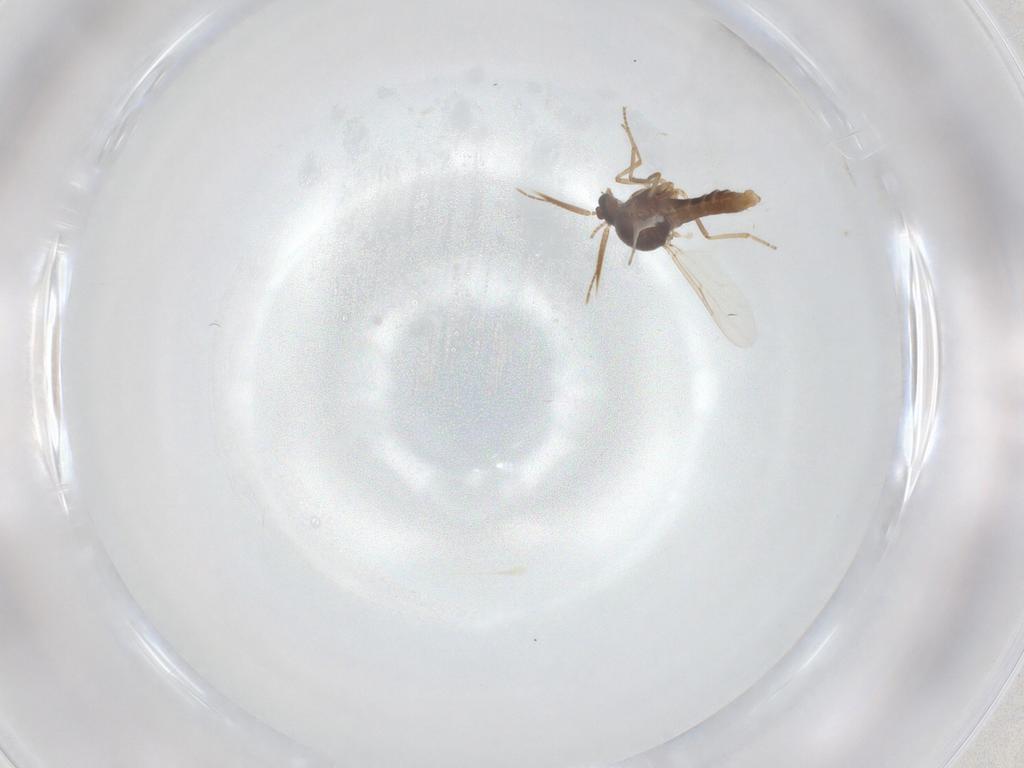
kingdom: Animalia
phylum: Arthropoda
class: Insecta
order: Diptera
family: Ceratopogonidae
